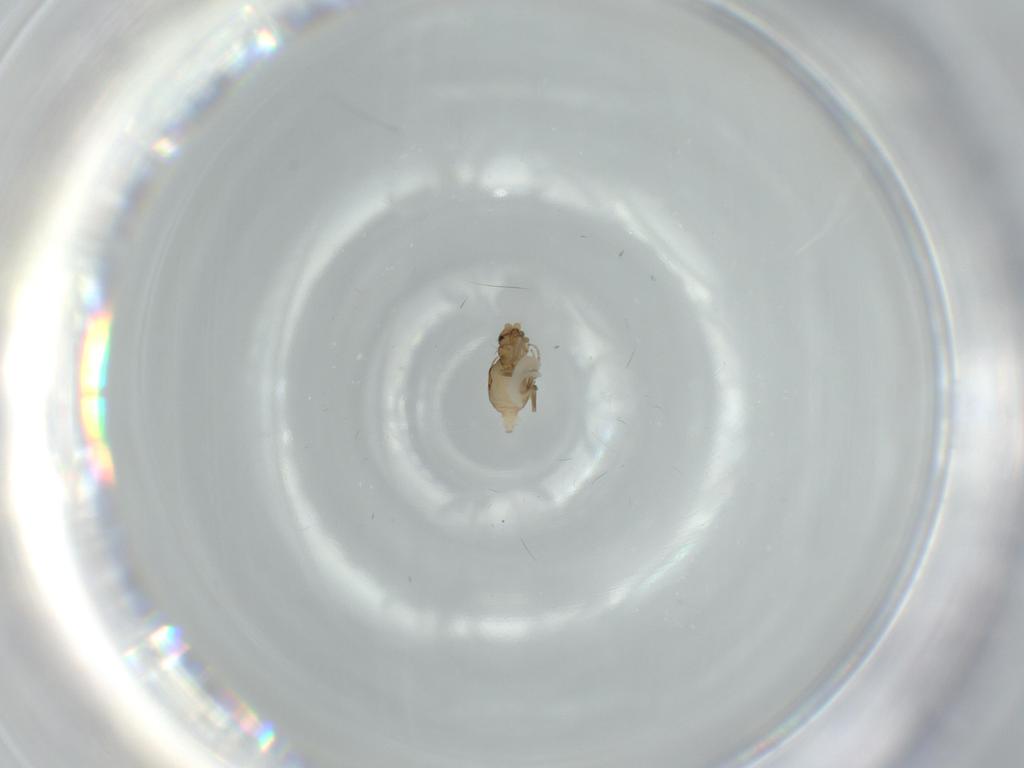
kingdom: Animalia
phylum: Arthropoda
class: Insecta
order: Diptera
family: Phoridae
